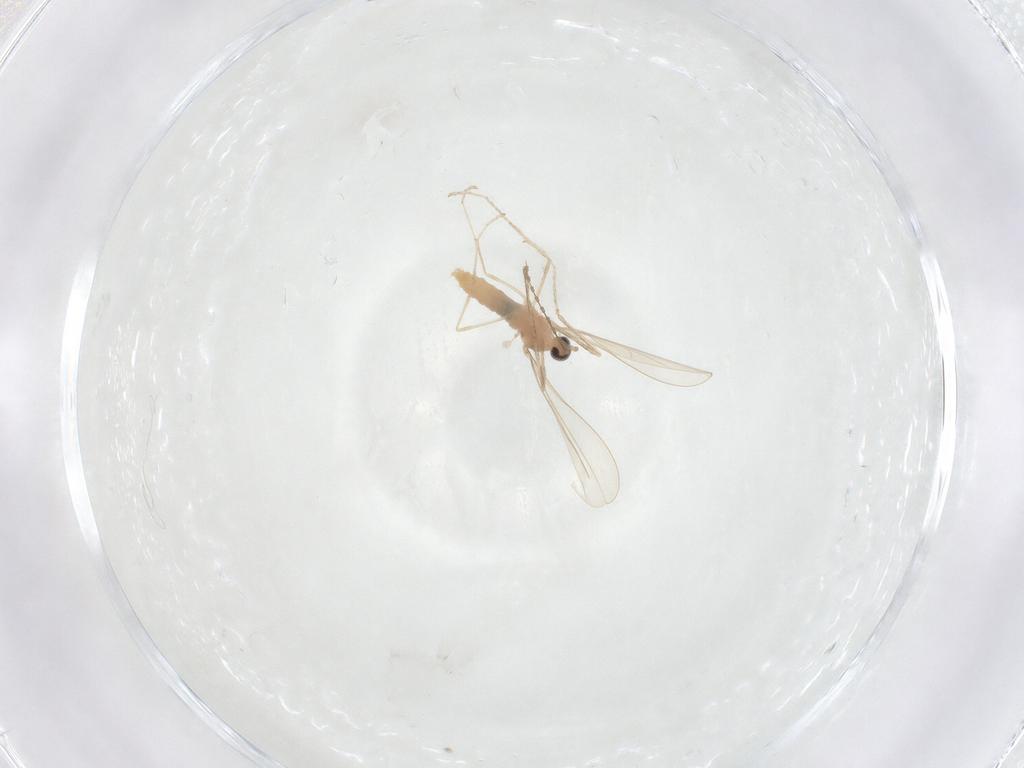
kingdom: Animalia
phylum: Arthropoda
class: Insecta
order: Diptera
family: Cecidomyiidae
